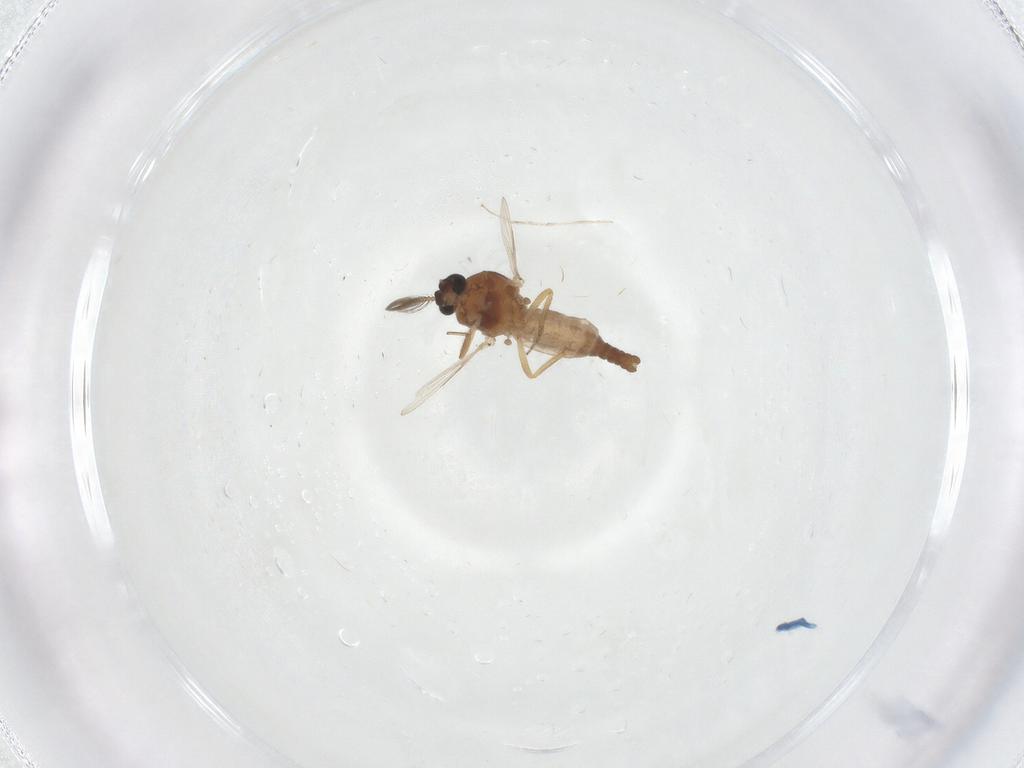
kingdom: Animalia
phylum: Arthropoda
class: Insecta
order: Diptera
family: Ceratopogonidae
